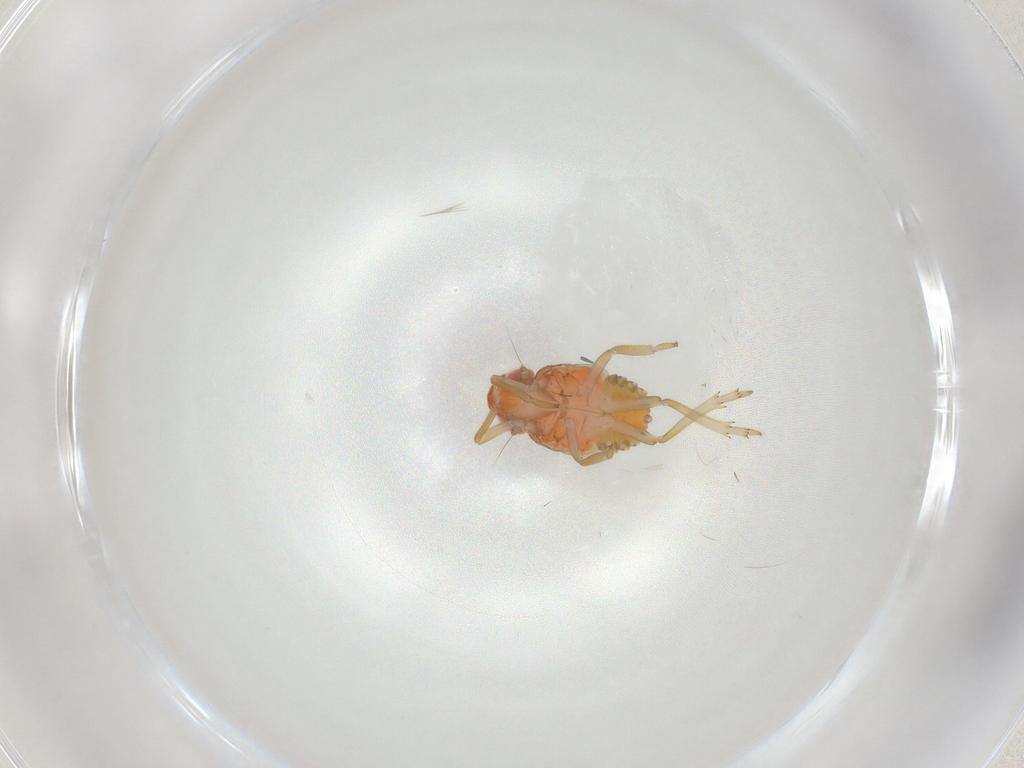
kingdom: Animalia
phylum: Arthropoda
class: Insecta
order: Hemiptera
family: Issidae
